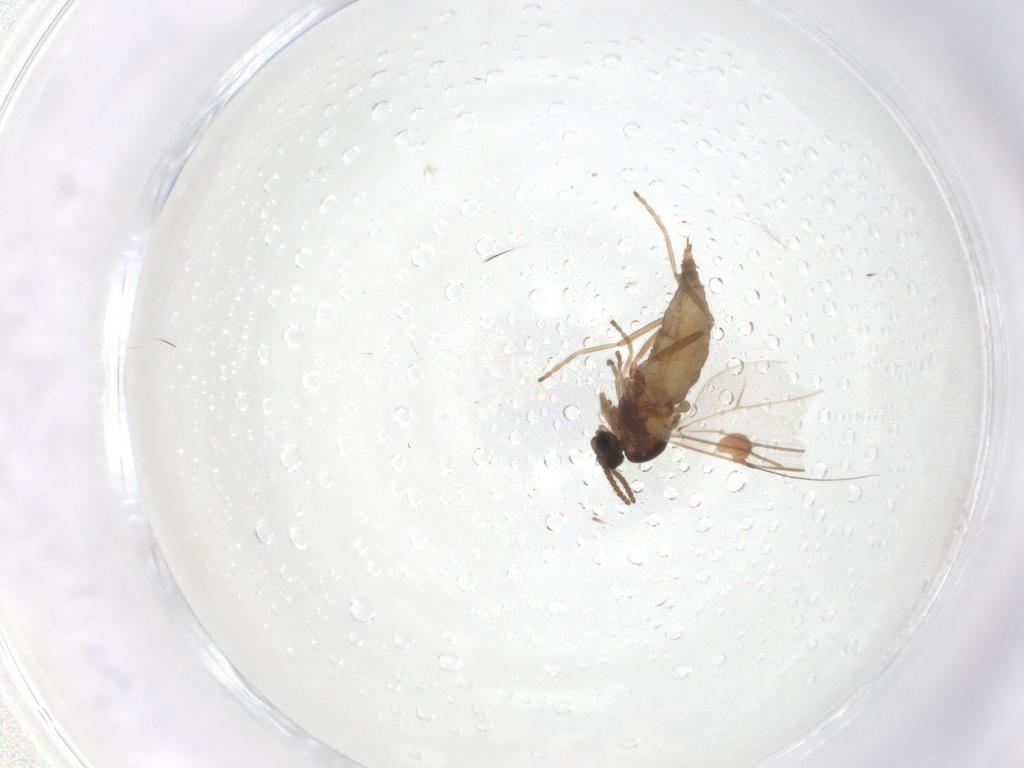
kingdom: Animalia
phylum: Arthropoda
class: Insecta
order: Diptera
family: Cecidomyiidae
